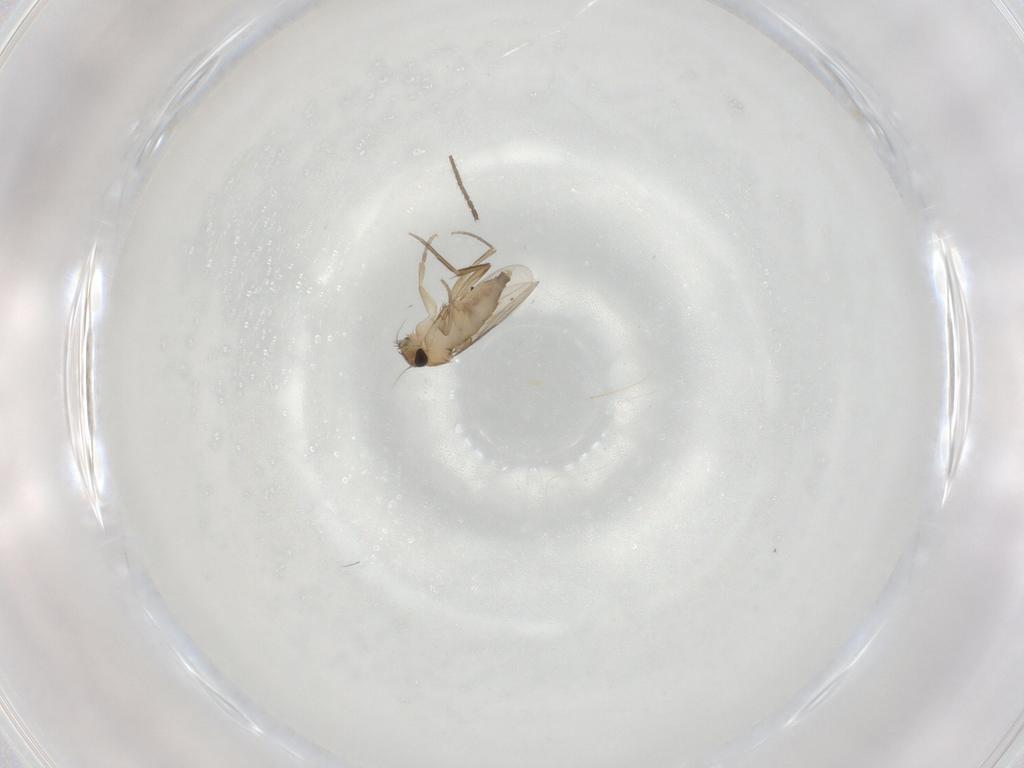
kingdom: Animalia
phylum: Arthropoda
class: Insecta
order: Diptera
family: Limoniidae
